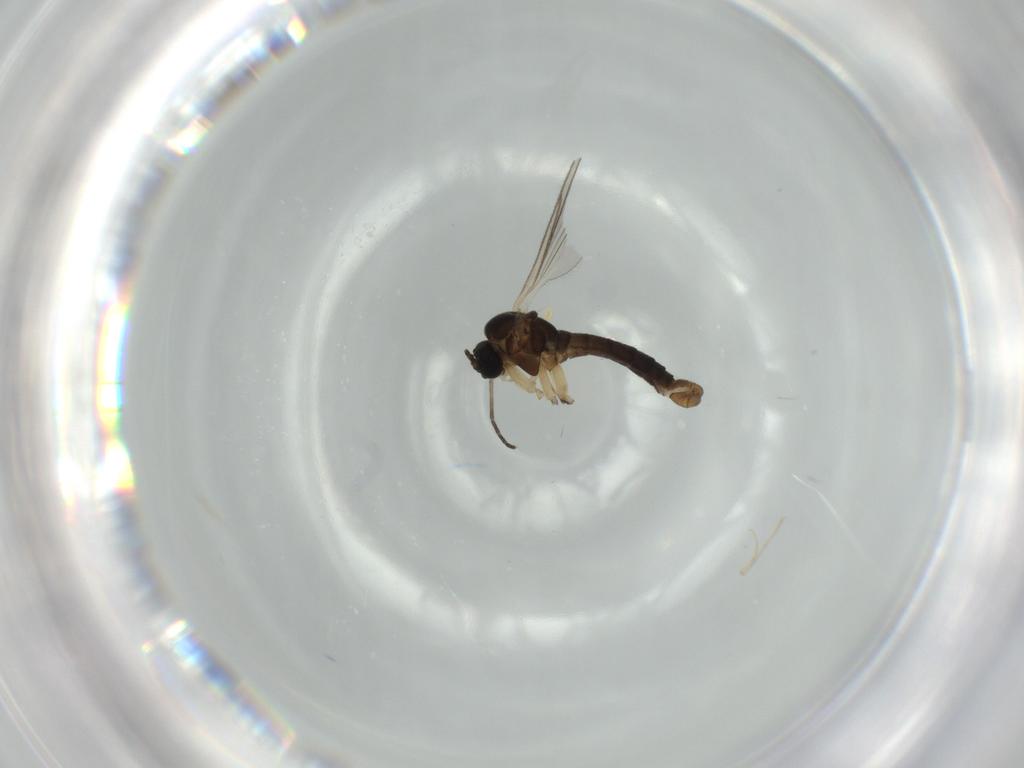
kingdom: Animalia
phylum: Arthropoda
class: Insecta
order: Diptera
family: Sciaridae
